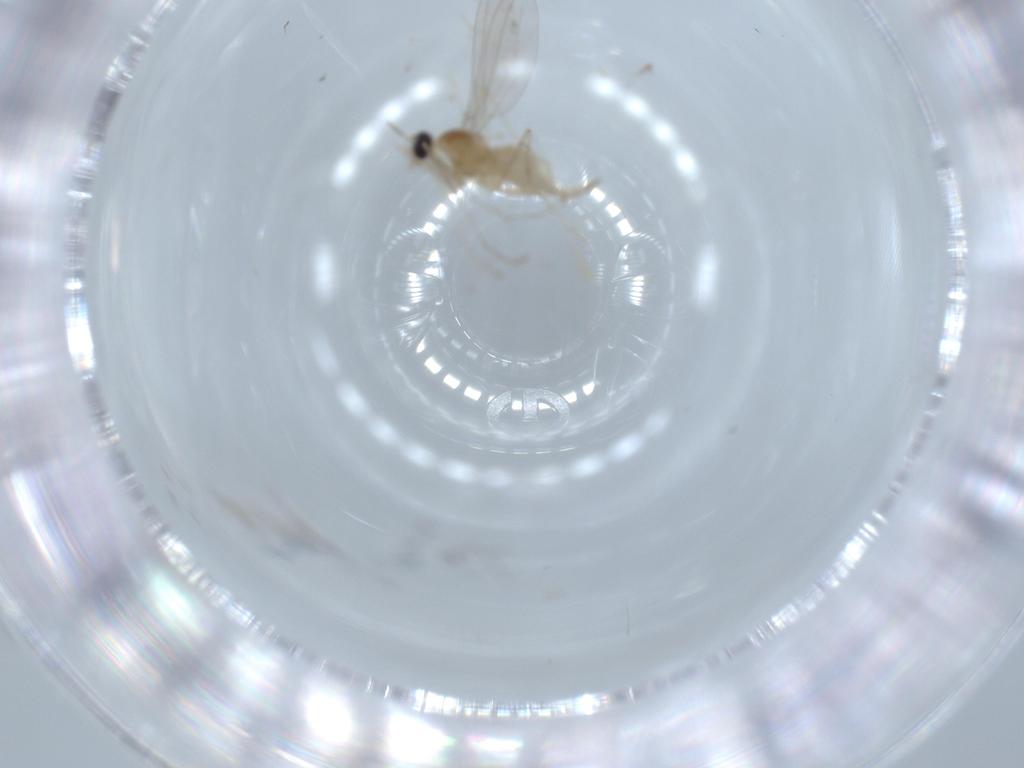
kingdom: Animalia
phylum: Arthropoda
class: Insecta
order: Diptera
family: Cecidomyiidae
